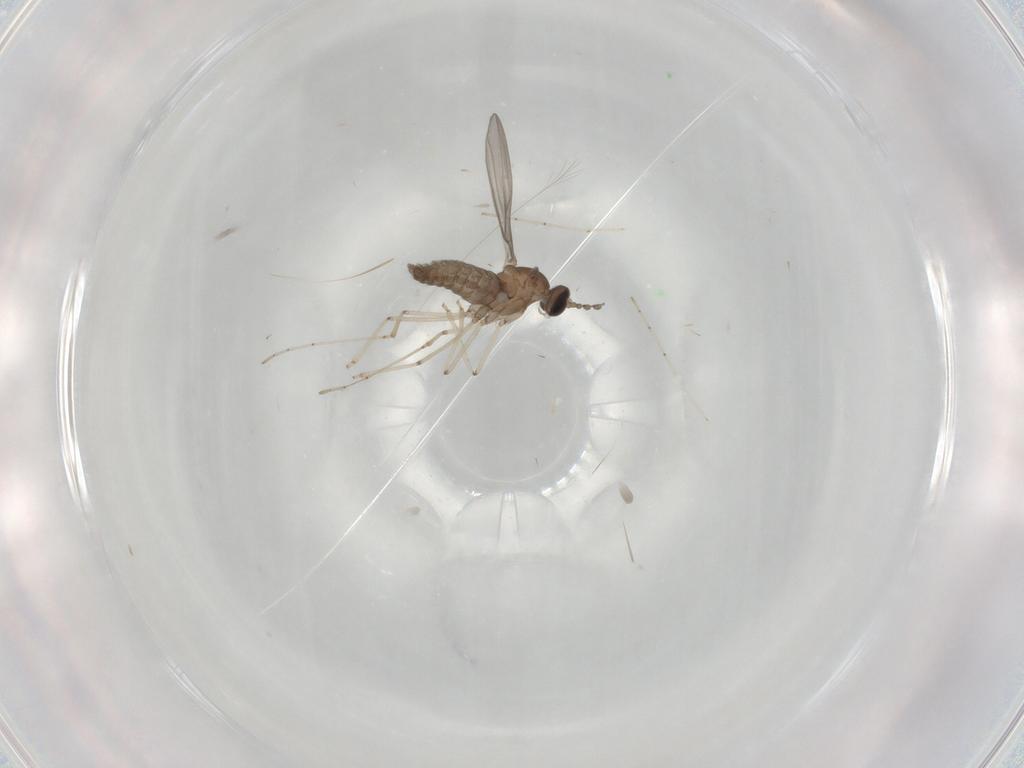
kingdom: Animalia
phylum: Arthropoda
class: Insecta
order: Diptera
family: Cecidomyiidae
